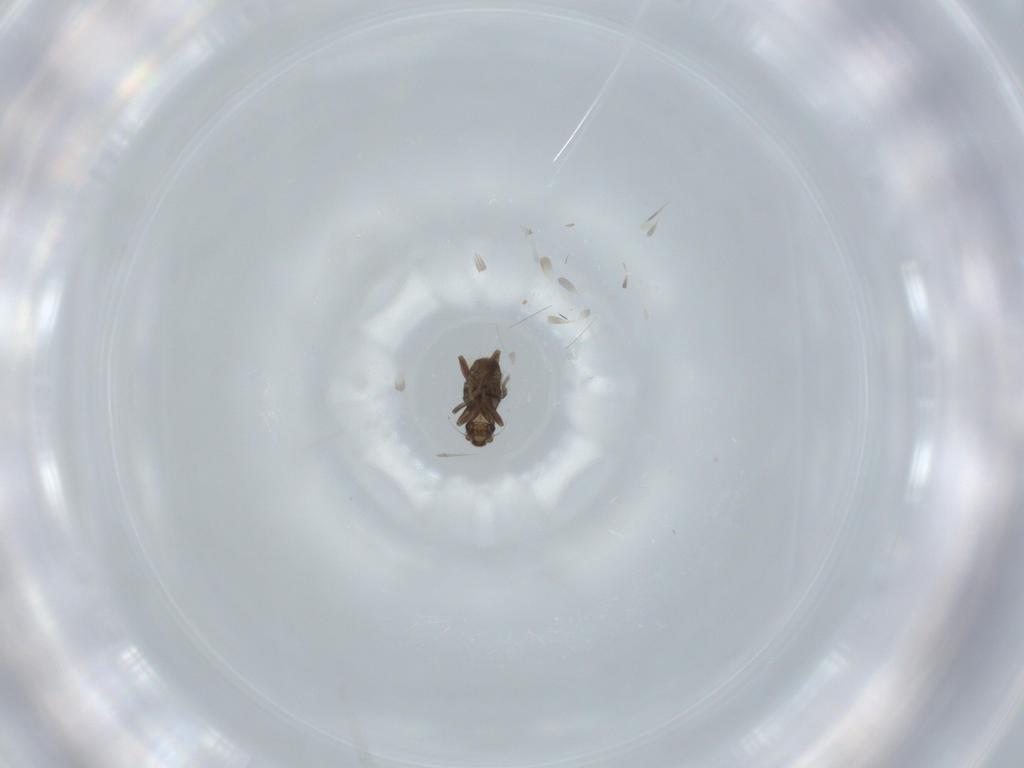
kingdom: Animalia
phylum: Arthropoda
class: Insecta
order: Diptera
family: Phoridae
